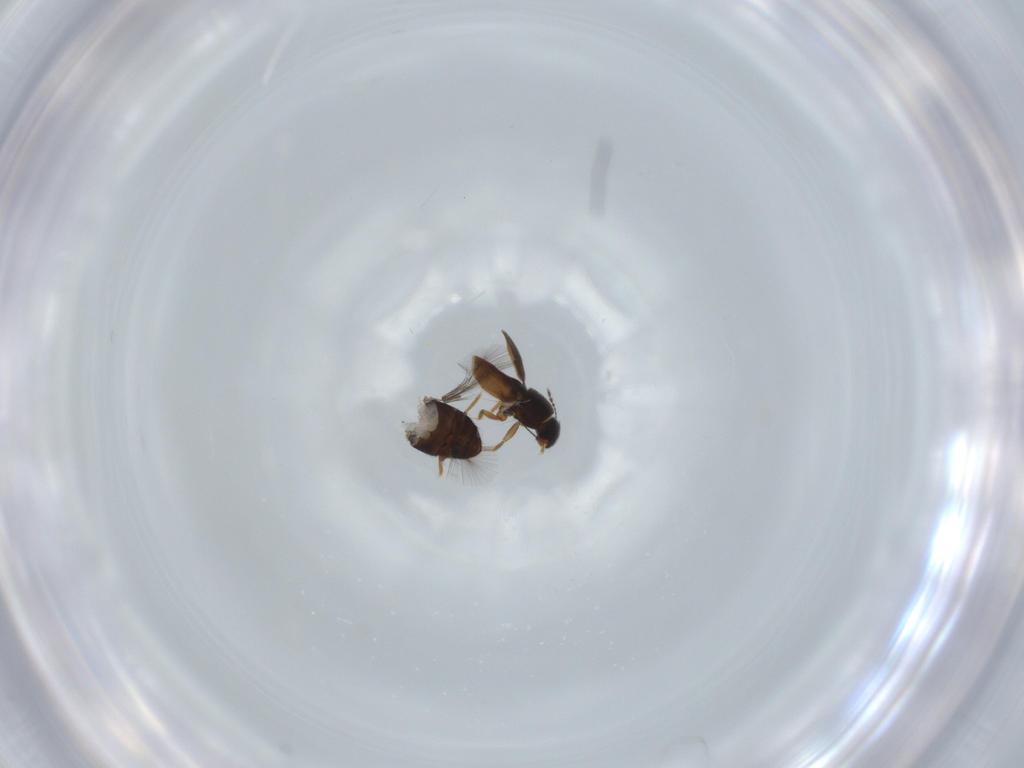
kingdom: Animalia
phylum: Arthropoda
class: Insecta
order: Coleoptera
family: Ptiliidae
